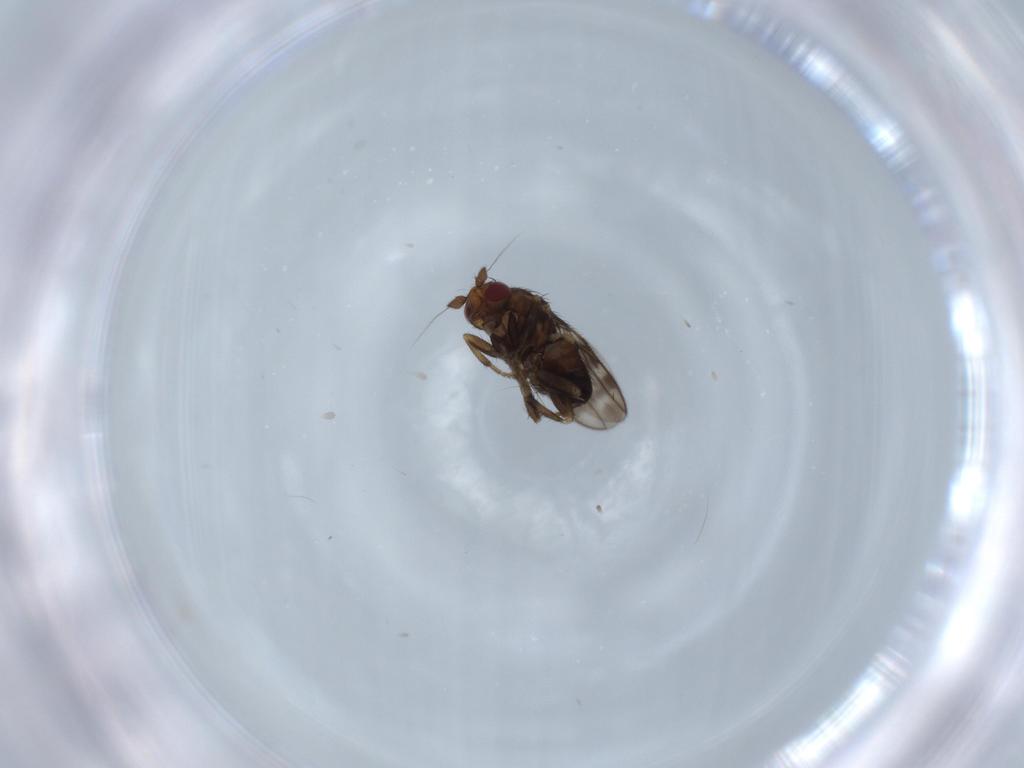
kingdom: Animalia
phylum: Arthropoda
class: Insecta
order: Diptera
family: Sphaeroceridae
